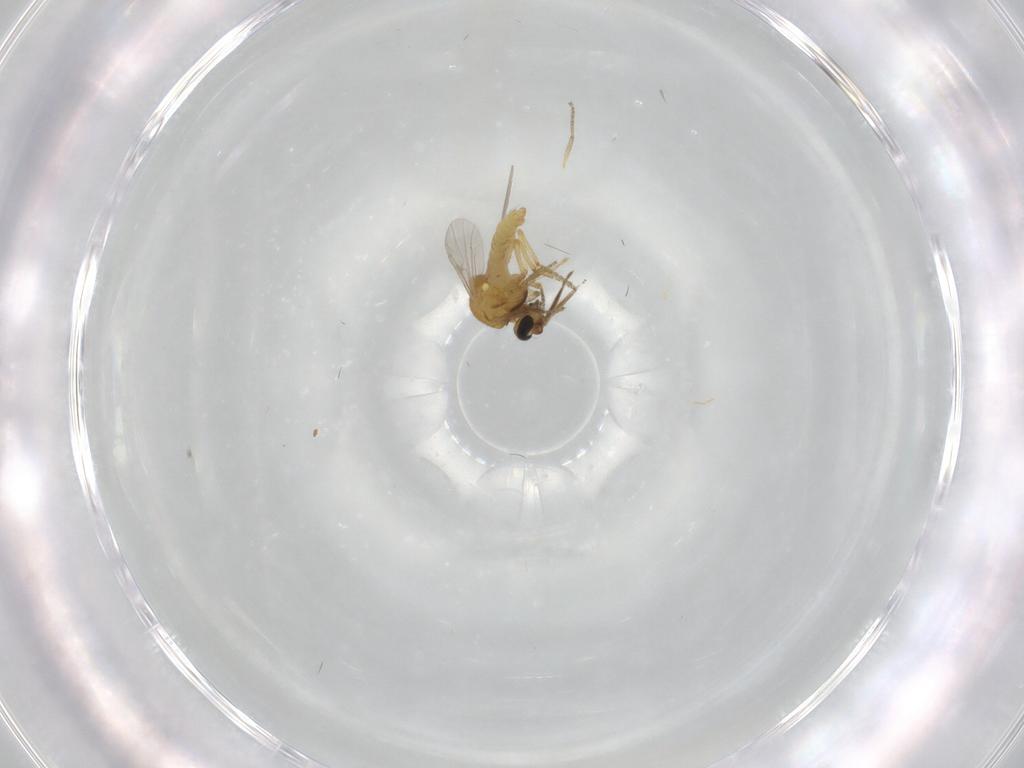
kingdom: Animalia
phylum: Arthropoda
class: Insecta
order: Diptera
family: Ceratopogonidae
